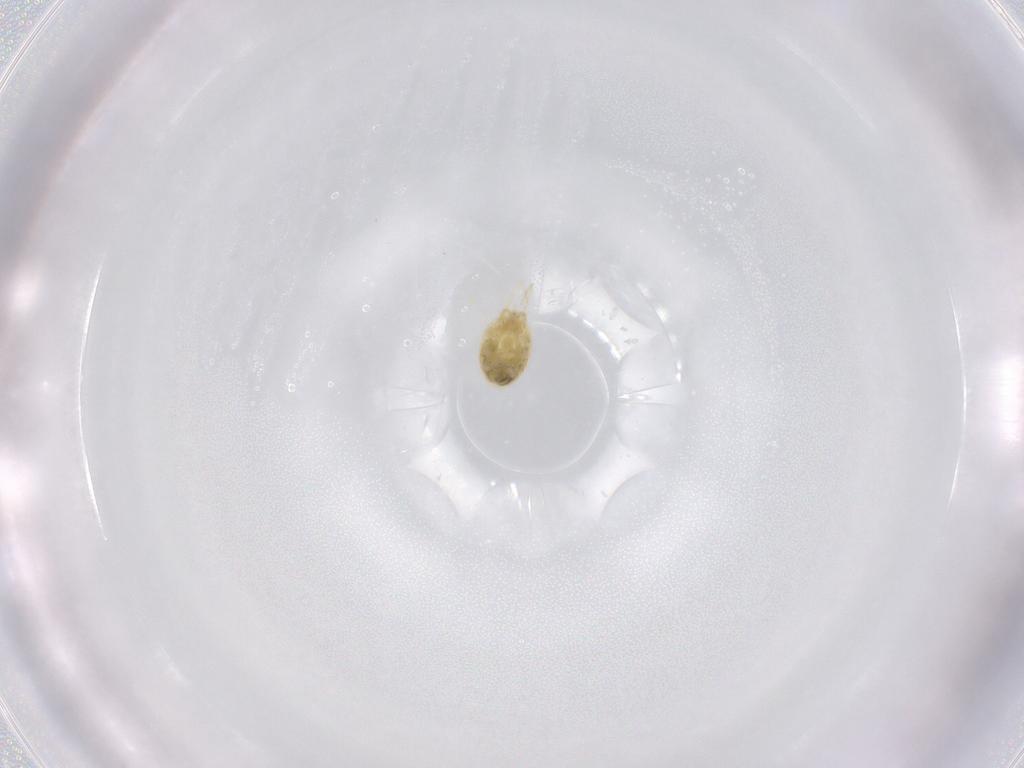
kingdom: Animalia
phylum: Arthropoda
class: Arachnida
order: Trombidiformes
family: Tetranychidae
